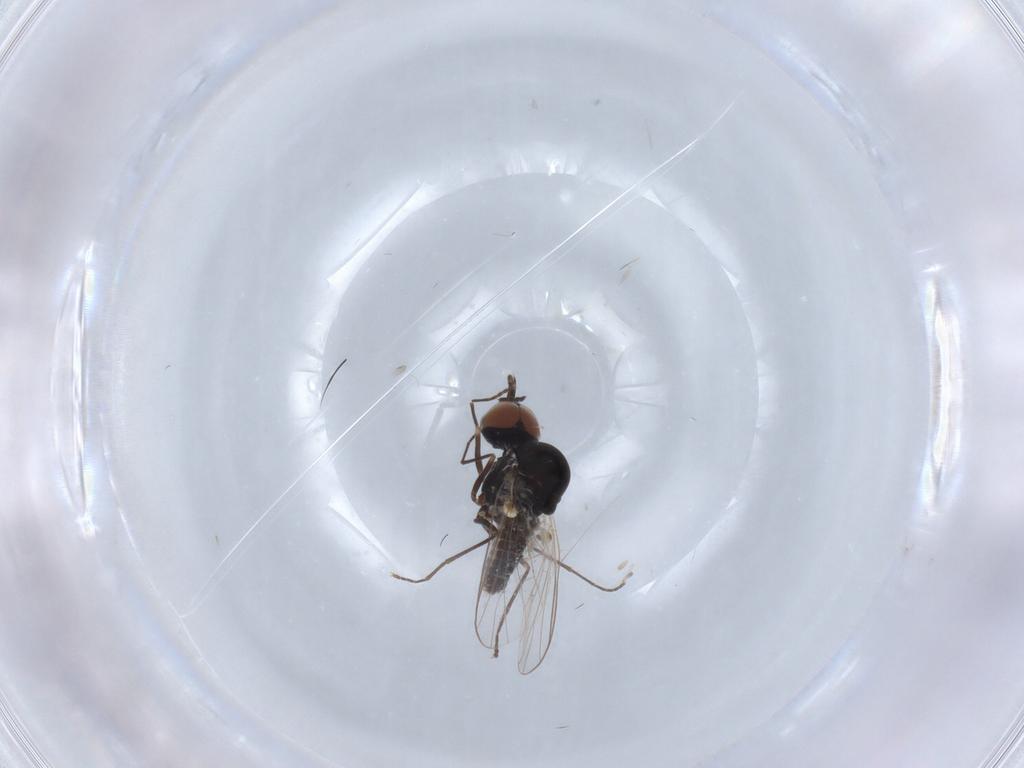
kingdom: Animalia
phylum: Arthropoda
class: Insecta
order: Diptera
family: Bombyliidae
